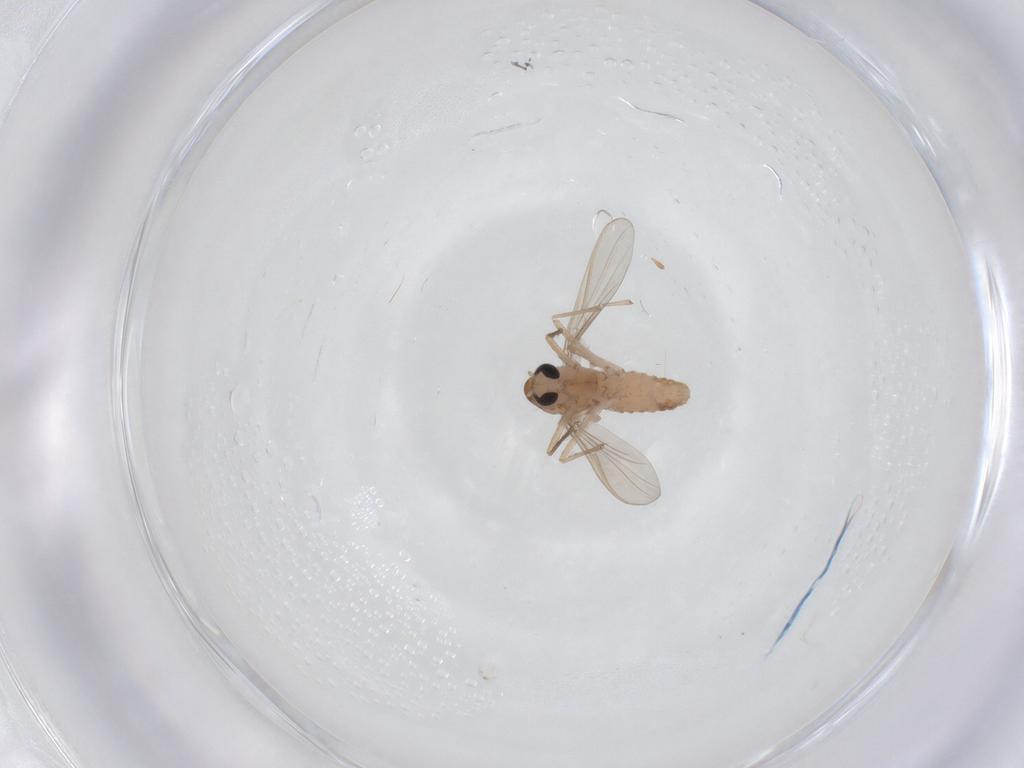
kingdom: Animalia
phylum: Arthropoda
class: Insecta
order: Diptera
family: Chironomidae
